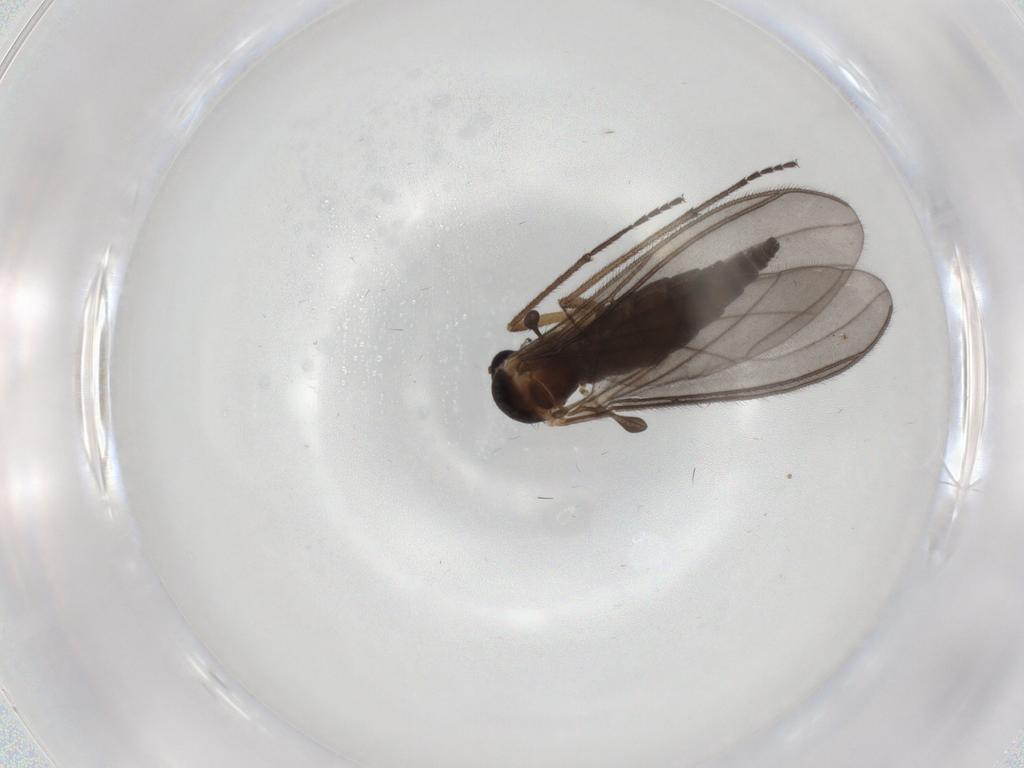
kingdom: Animalia
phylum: Arthropoda
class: Insecta
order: Diptera
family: Sciaridae
